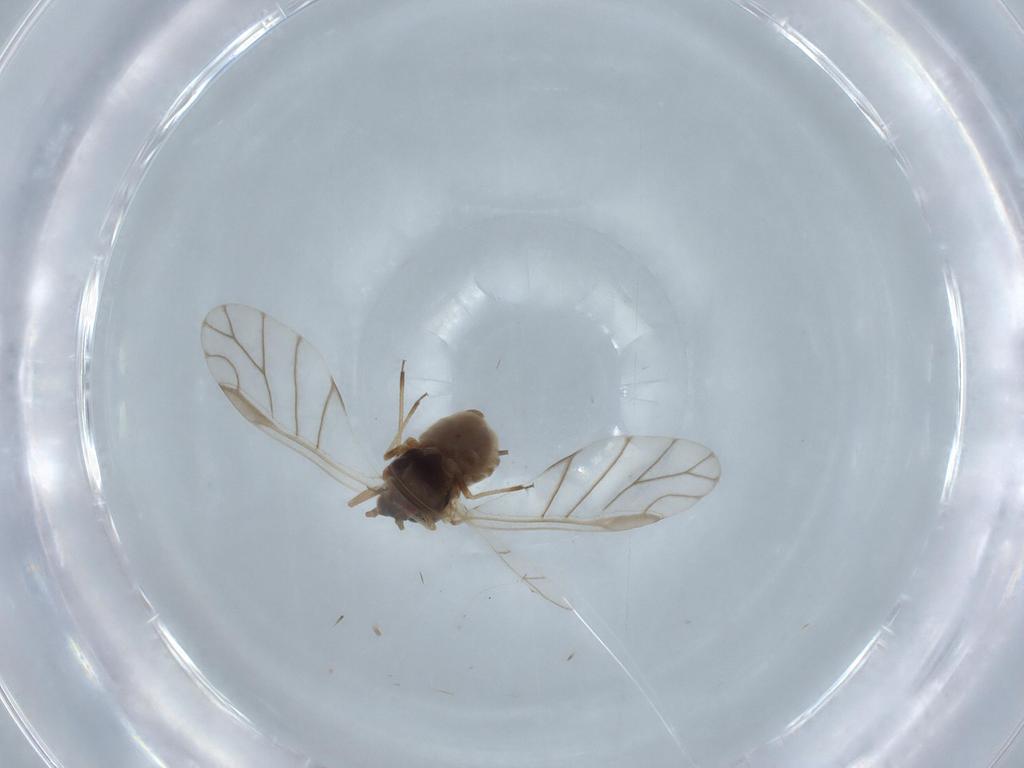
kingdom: Animalia
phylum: Arthropoda
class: Insecta
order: Hemiptera
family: Aphididae
